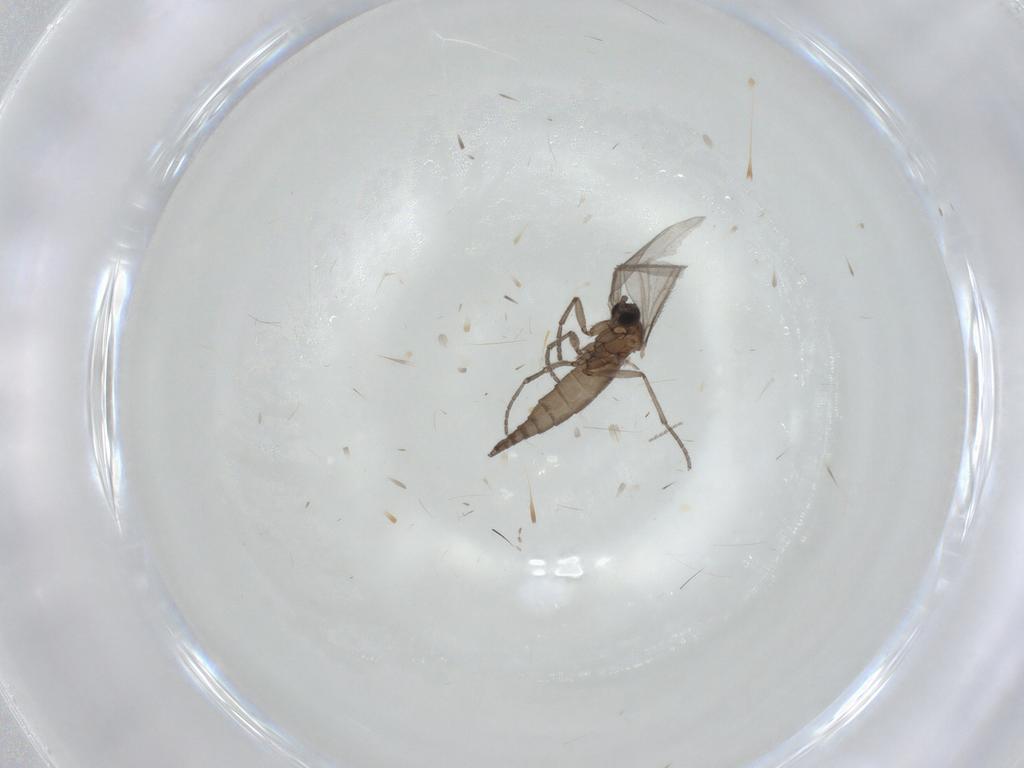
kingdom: Animalia
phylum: Arthropoda
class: Insecta
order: Diptera
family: Sciaridae
